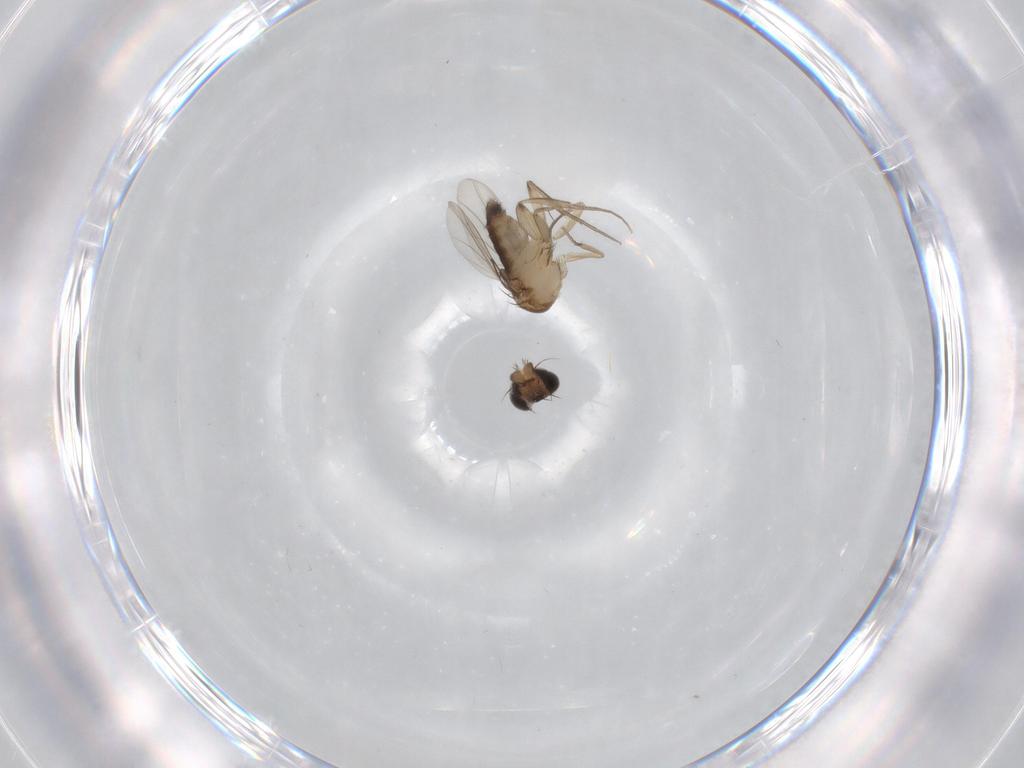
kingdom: Animalia
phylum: Arthropoda
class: Insecta
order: Diptera
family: Phoridae
